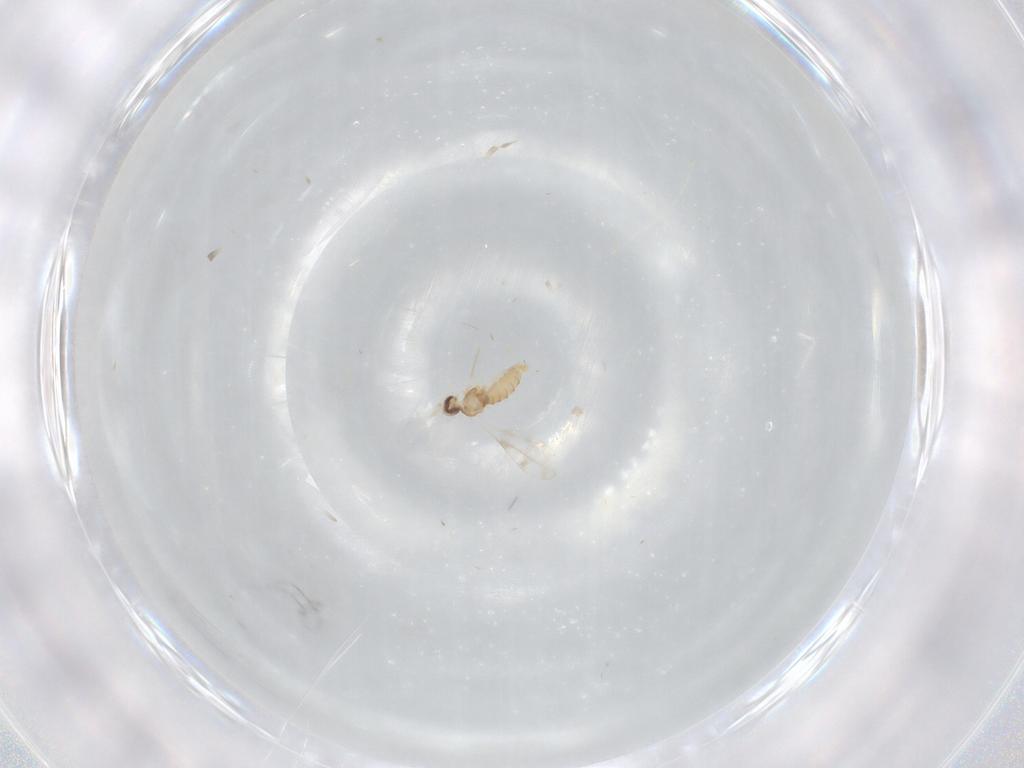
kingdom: Animalia
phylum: Arthropoda
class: Insecta
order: Diptera
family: Cecidomyiidae
